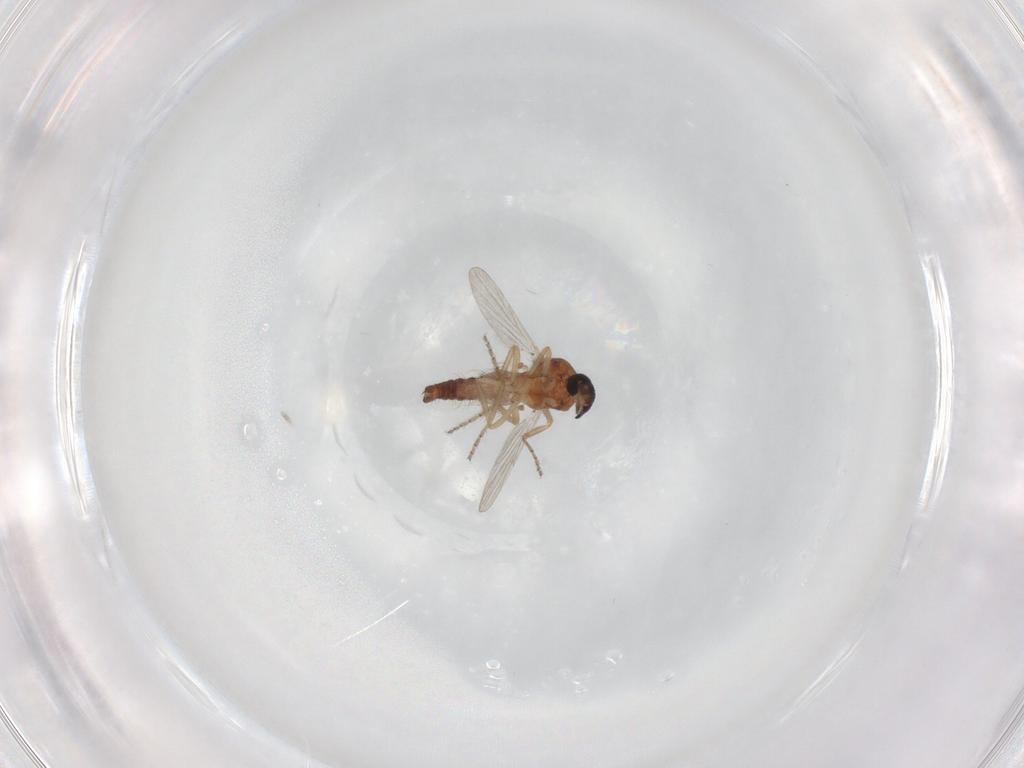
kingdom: Animalia
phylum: Arthropoda
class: Insecta
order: Diptera
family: Ceratopogonidae
